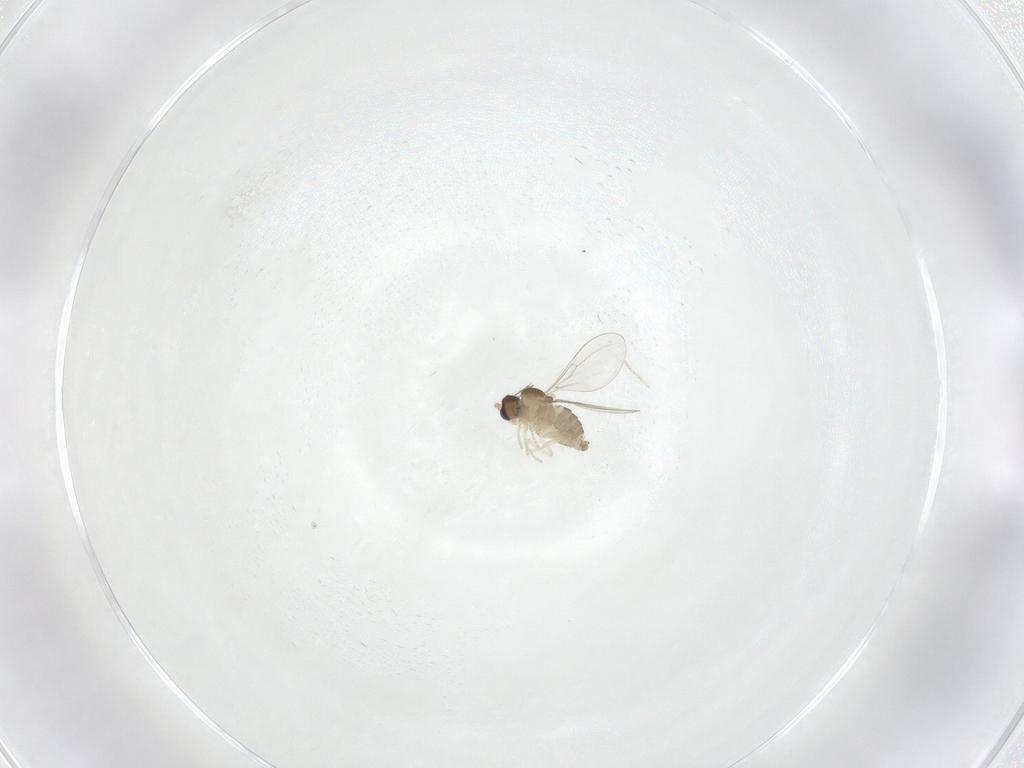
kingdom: Animalia
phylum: Arthropoda
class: Insecta
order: Diptera
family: Cecidomyiidae
